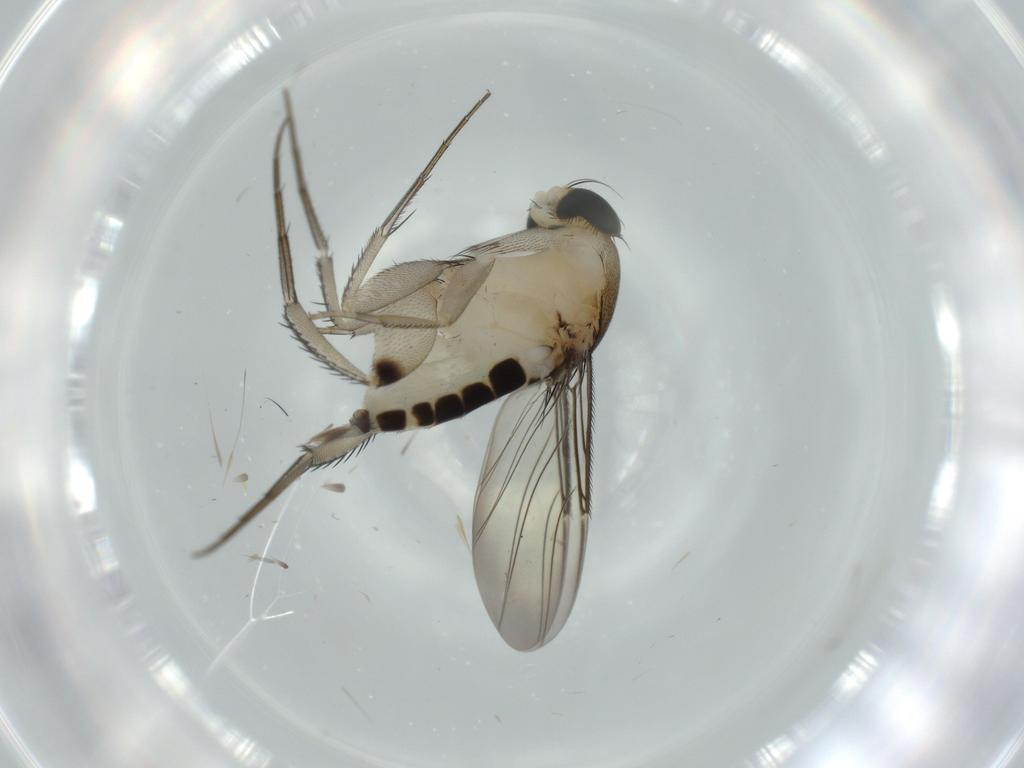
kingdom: Animalia
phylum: Arthropoda
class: Insecta
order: Diptera
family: Phoridae
